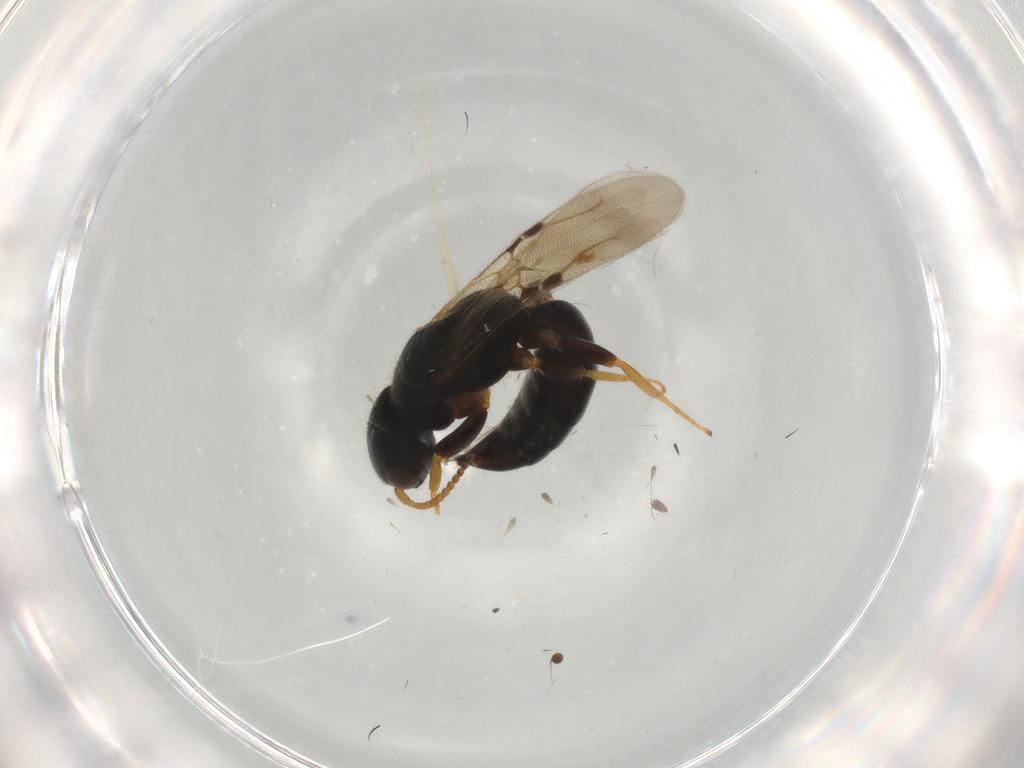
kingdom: Animalia
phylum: Arthropoda
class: Insecta
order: Hymenoptera
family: Bethylidae
